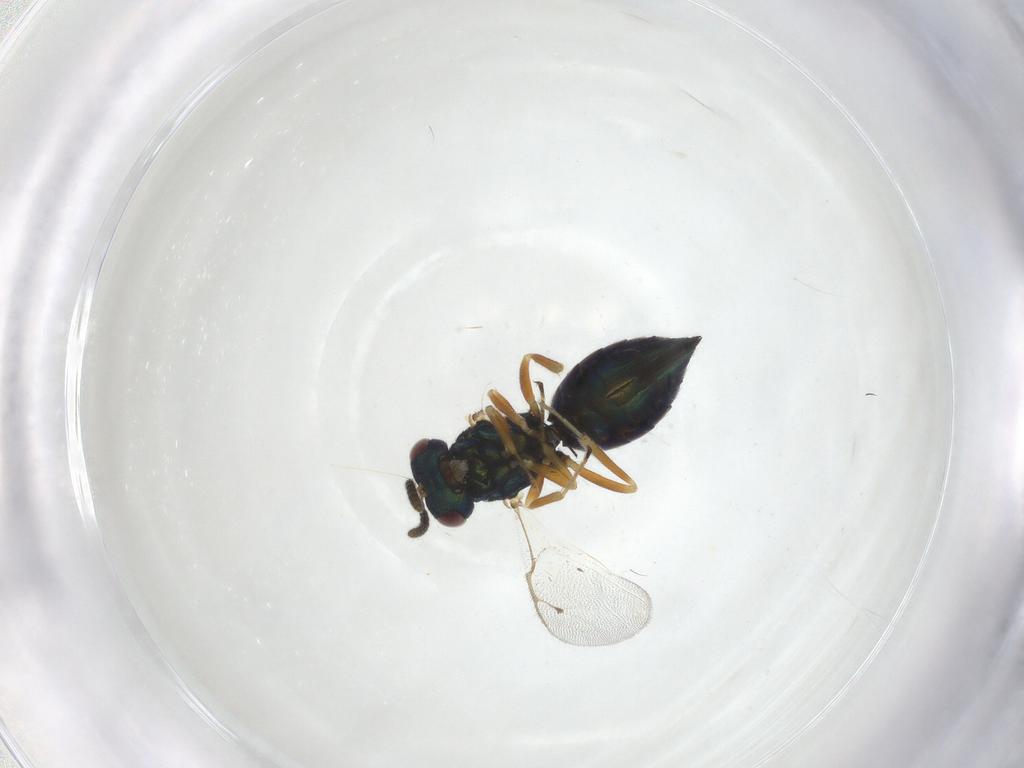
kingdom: Animalia
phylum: Arthropoda
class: Insecta
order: Hymenoptera
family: Pteromalidae
